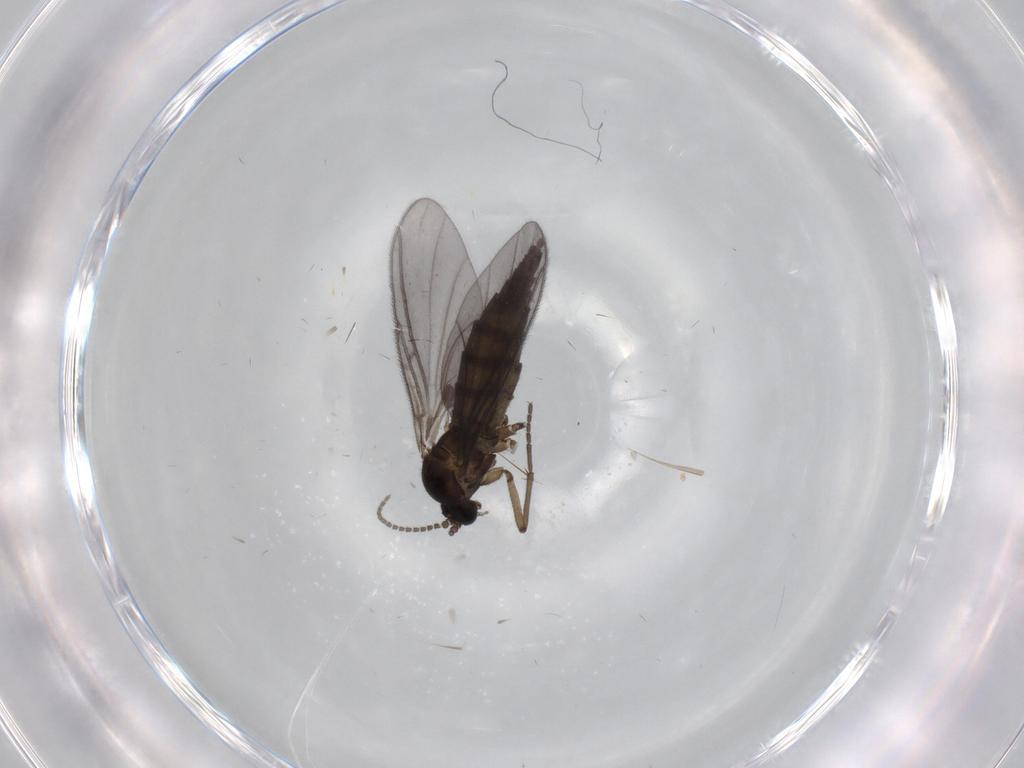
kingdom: Animalia
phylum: Arthropoda
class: Insecta
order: Diptera
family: Sciaridae
